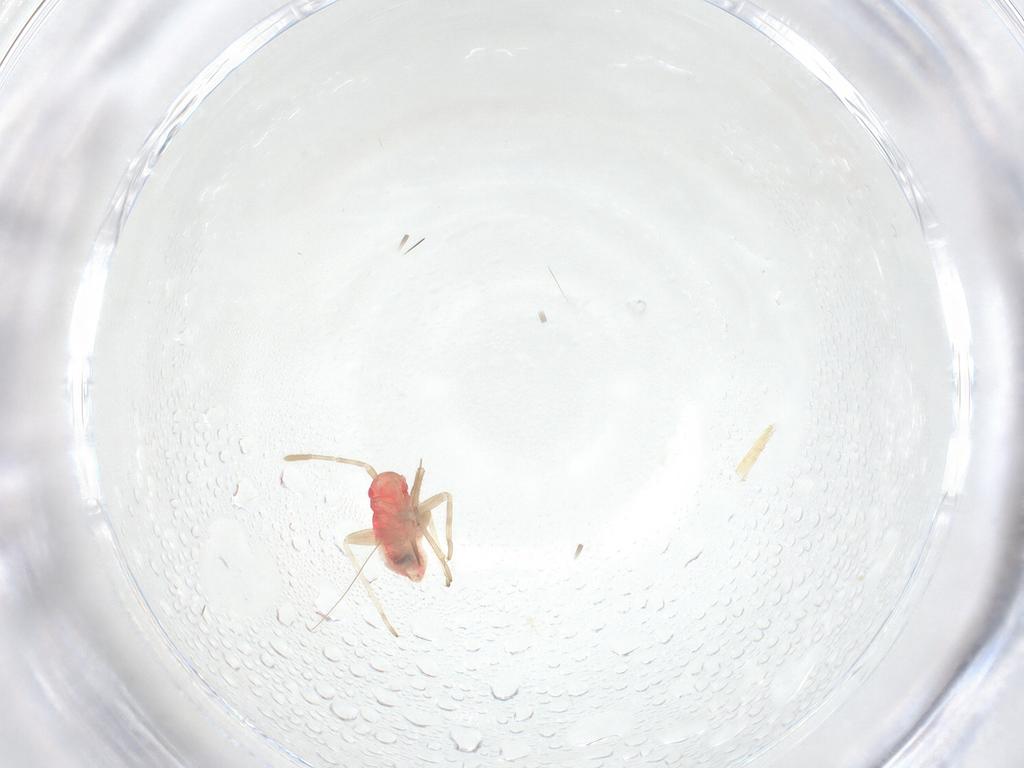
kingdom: Animalia
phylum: Arthropoda
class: Insecta
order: Hemiptera
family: Miridae
